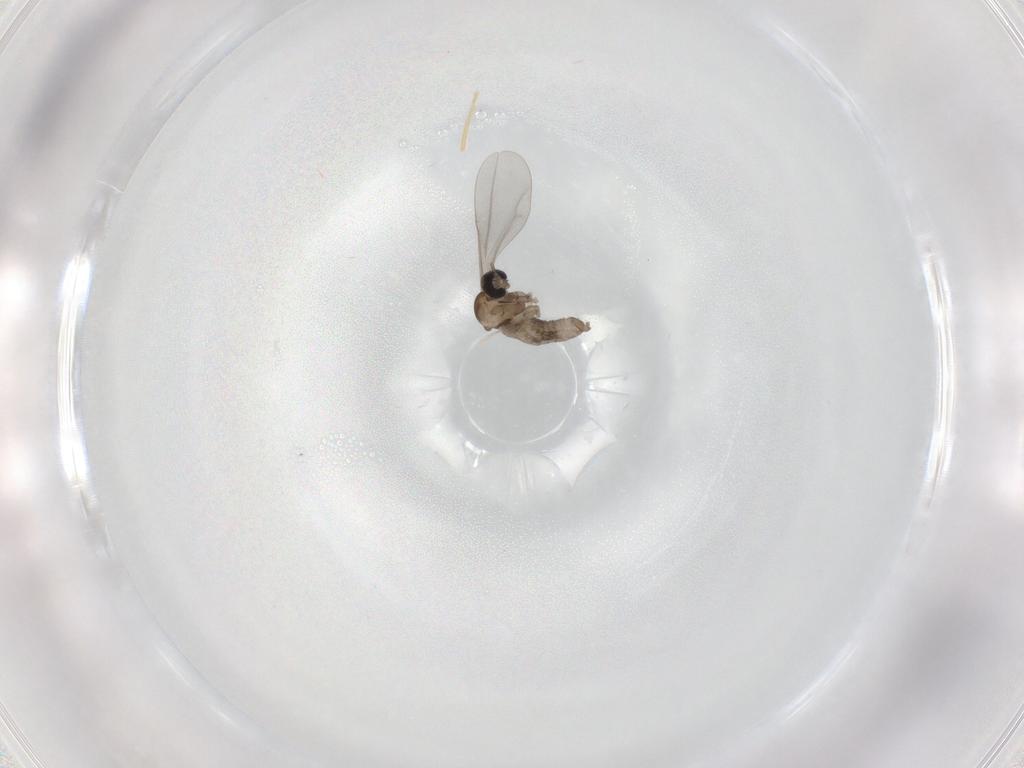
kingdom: Animalia
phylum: Arthropoda
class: Insecta
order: Diptera
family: Cecidomyiidae
